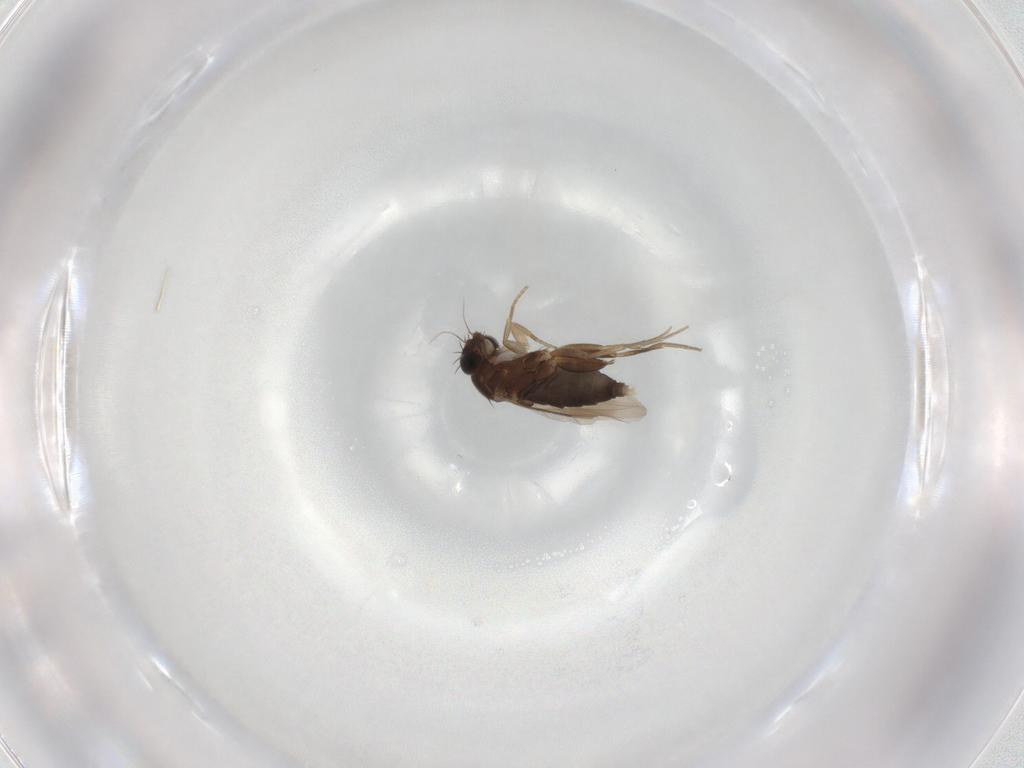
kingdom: Animalia
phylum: Arthropoda
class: Insecta
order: Diptera
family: Phoridae
